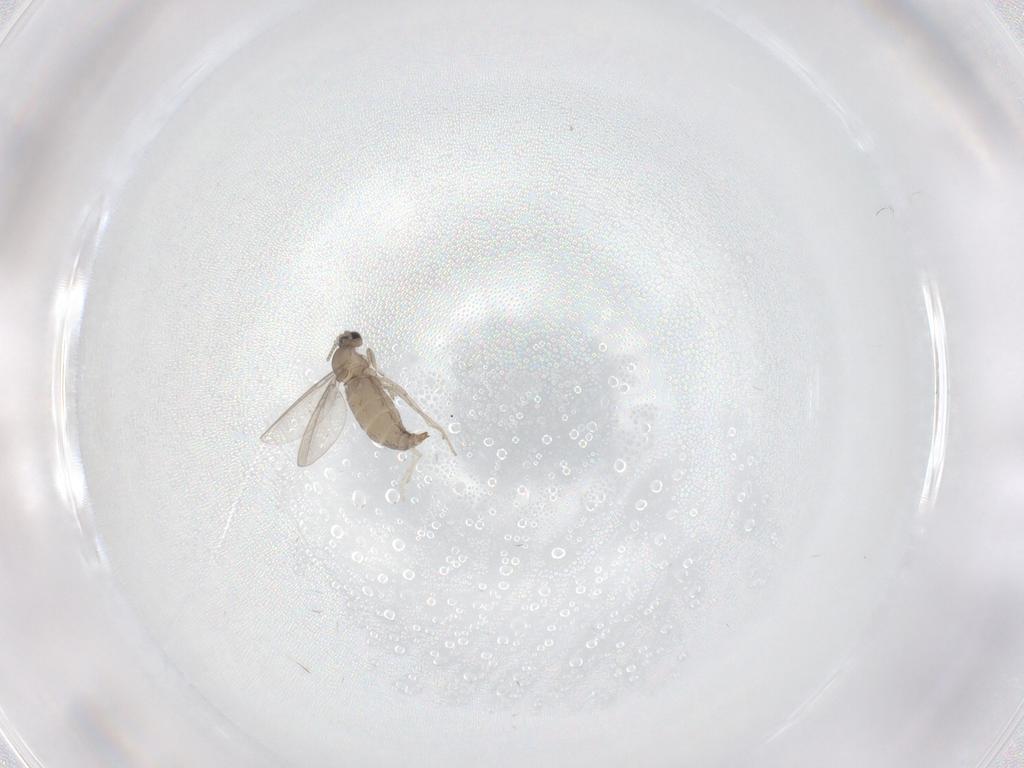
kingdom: Animalia
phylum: Arthropoda
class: Insecta
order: Diptera
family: Cecidomyiidae
